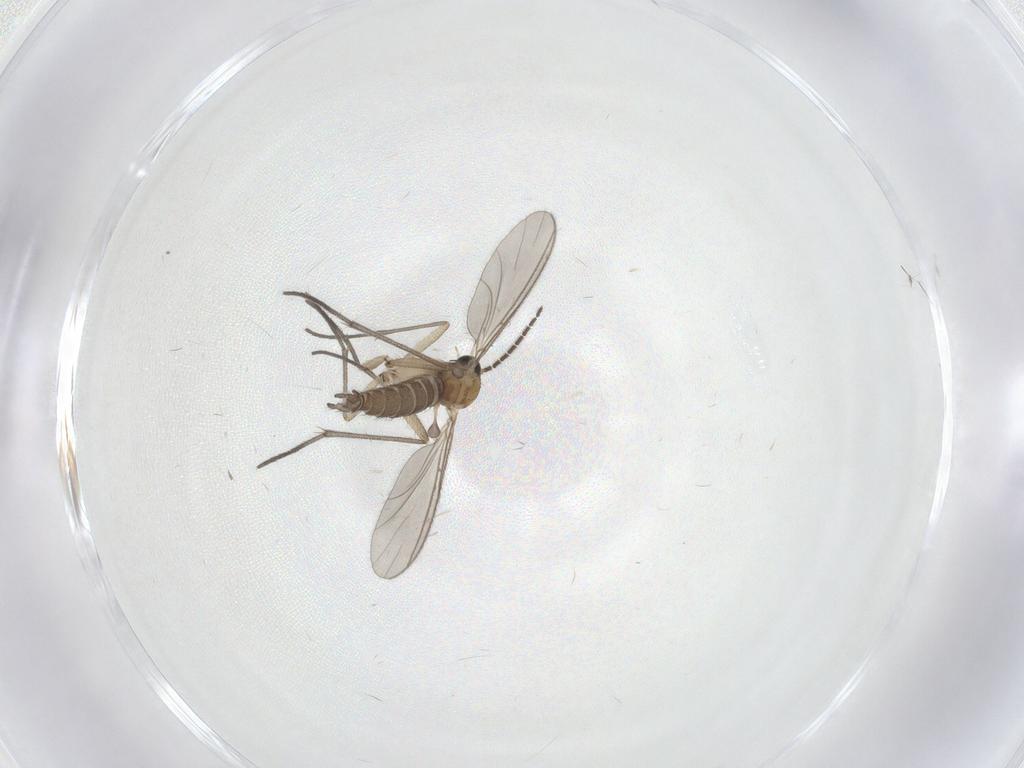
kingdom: Animalia
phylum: Arthropoda
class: Insecta
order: Diptera
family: Sciaridae
